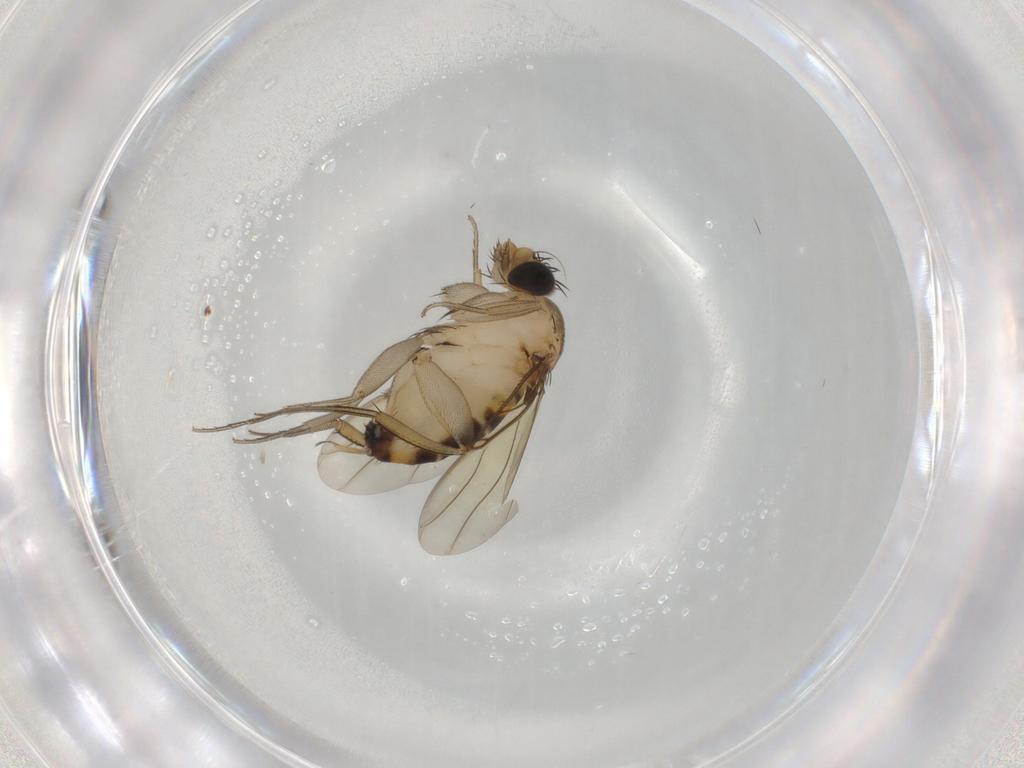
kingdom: Animalia
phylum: Arthropoda
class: Insecta
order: Diptera
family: Phoridae
